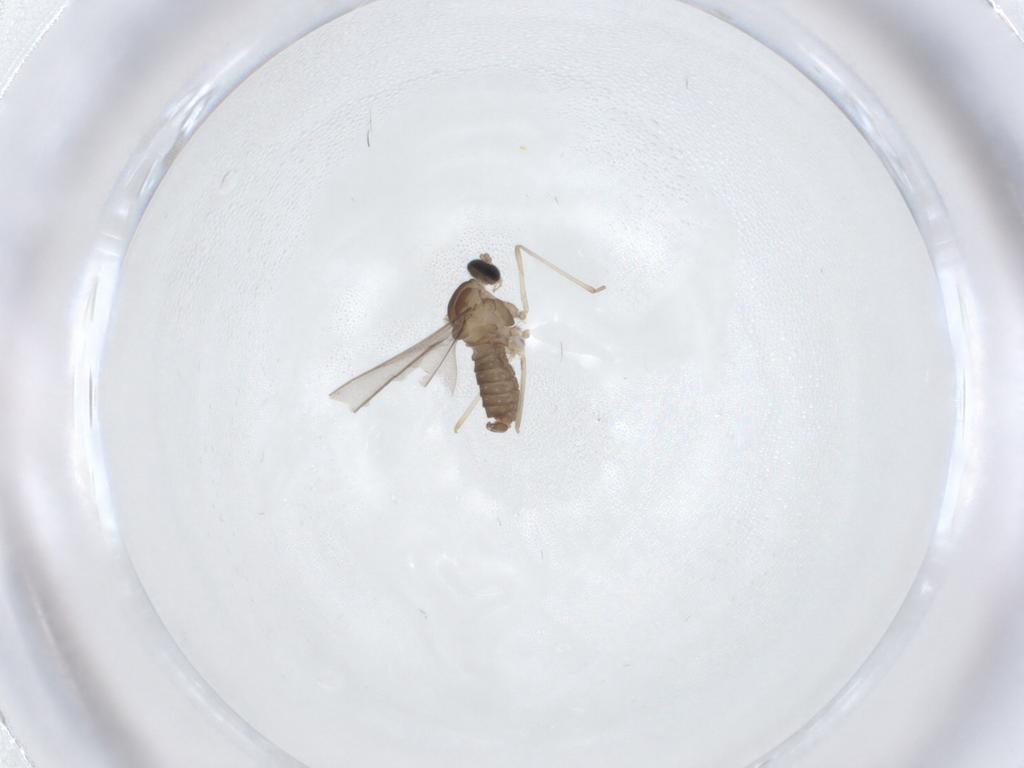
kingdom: Animalia
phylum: Arthropoda
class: Insecta
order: Diptera
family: Cecidomyiidae
